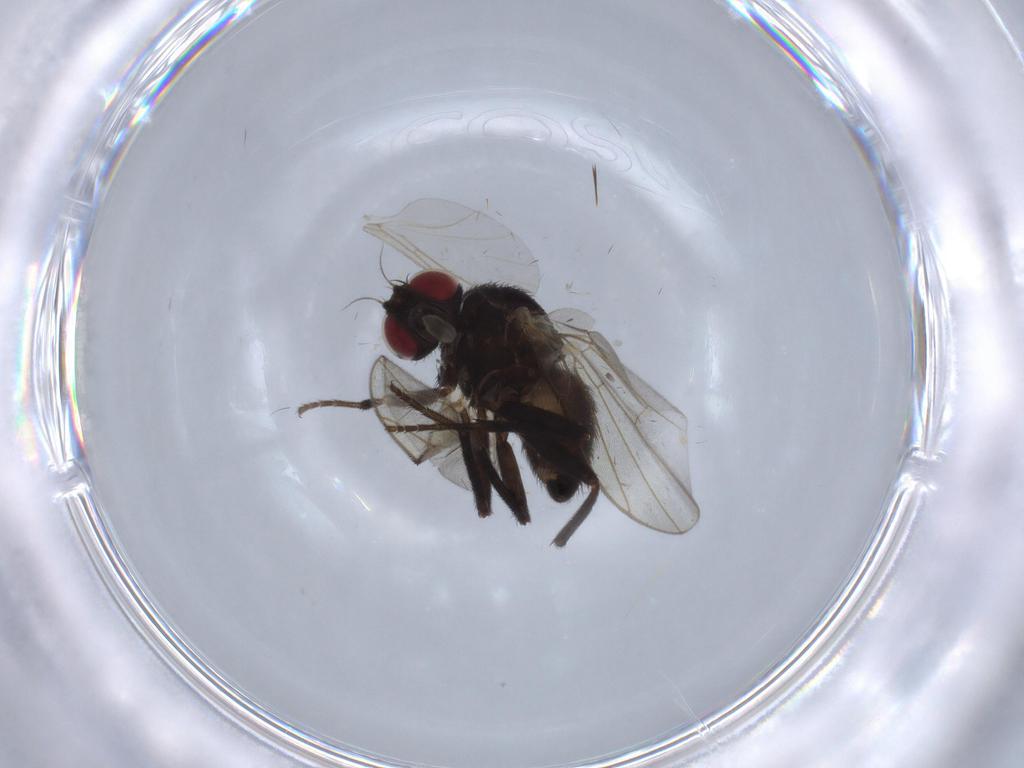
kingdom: Animalia
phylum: Arthropoda
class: Insecta
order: Diptera
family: Agromyzidae
